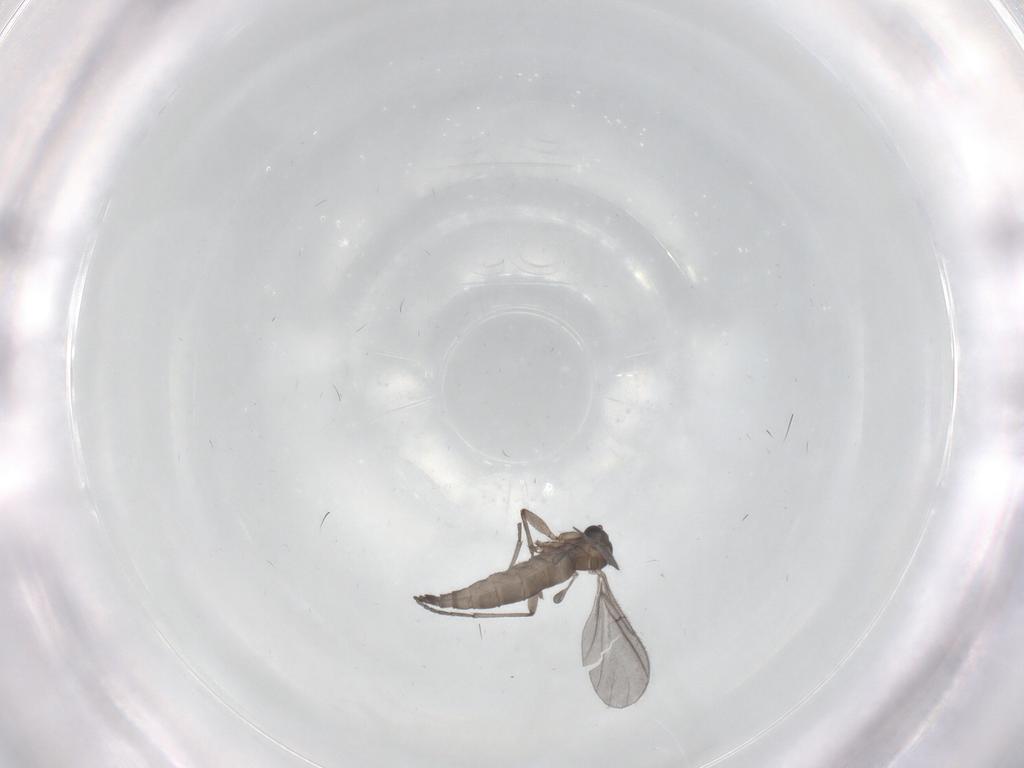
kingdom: Animalia
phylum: Arthropoda
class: Insecta
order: Diptera
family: Sciaridae
